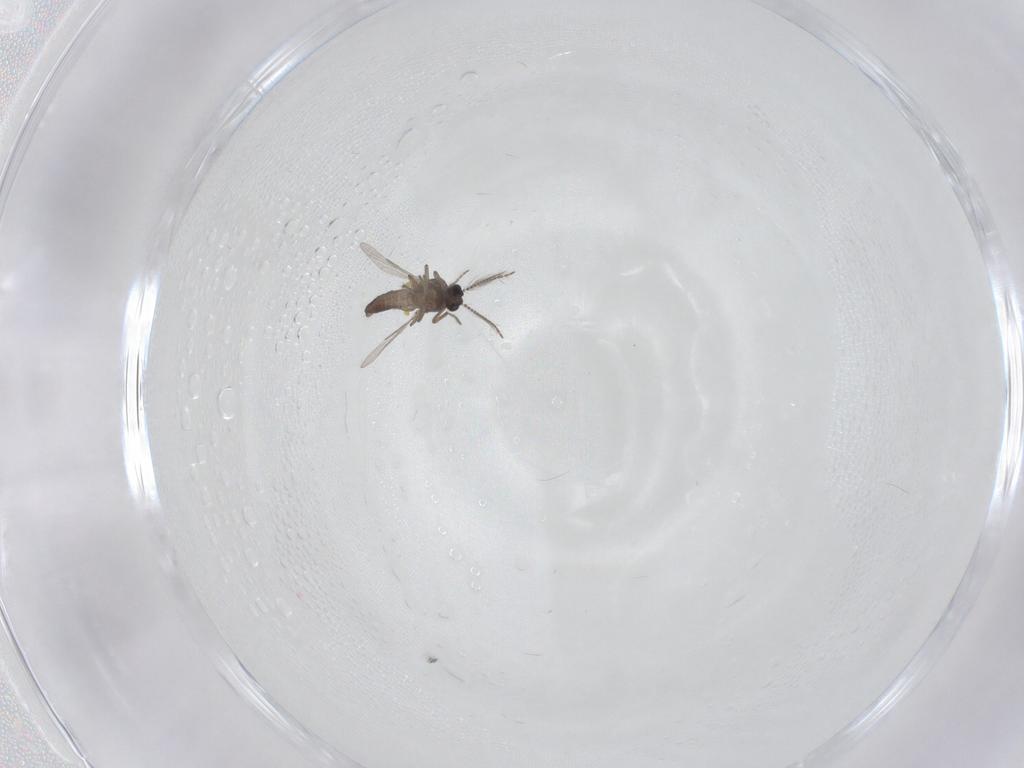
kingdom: Animalia
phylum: Arthropoda
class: Insecta
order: Diptera
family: Ceratopogonidae
